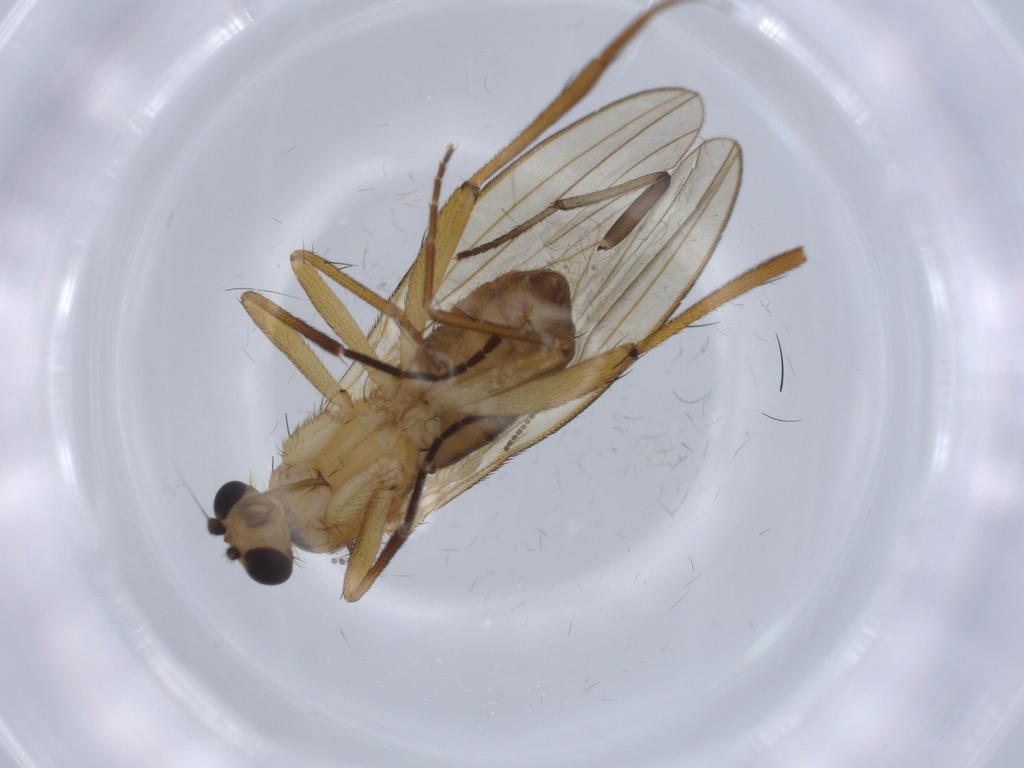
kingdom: Animalia
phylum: Arthropoda
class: Insecta
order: Diptera
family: Lonchopteridae
